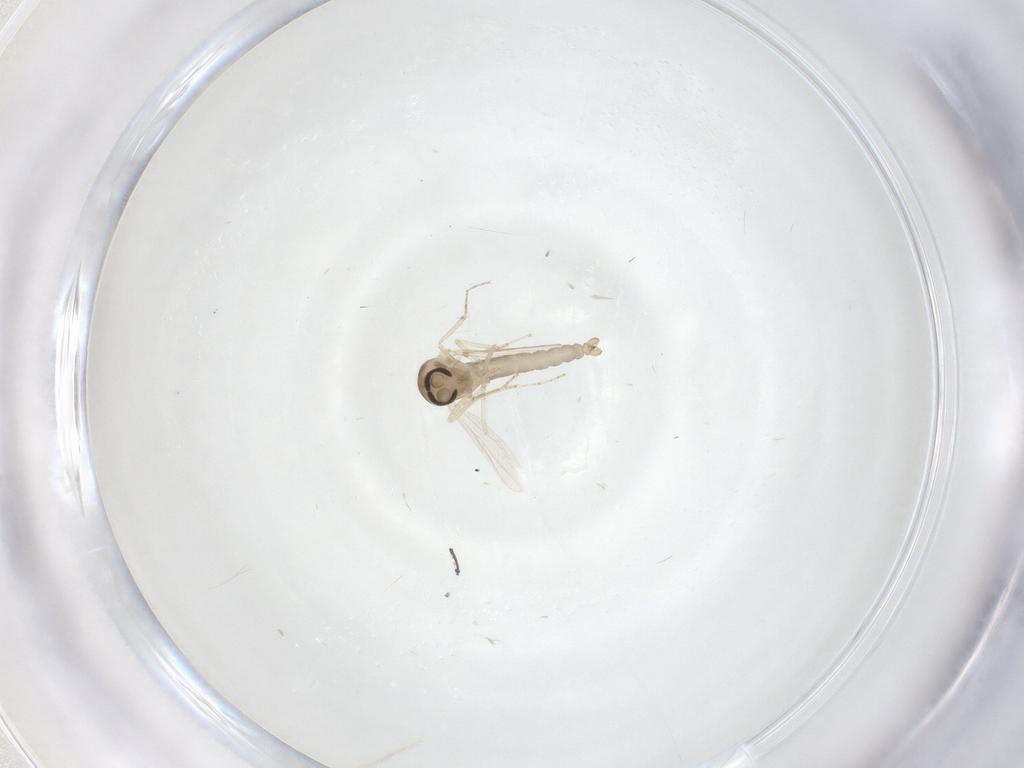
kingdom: Animalia
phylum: Arthropoda
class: Insecta
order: Diptera
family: Ceratopogonidae
